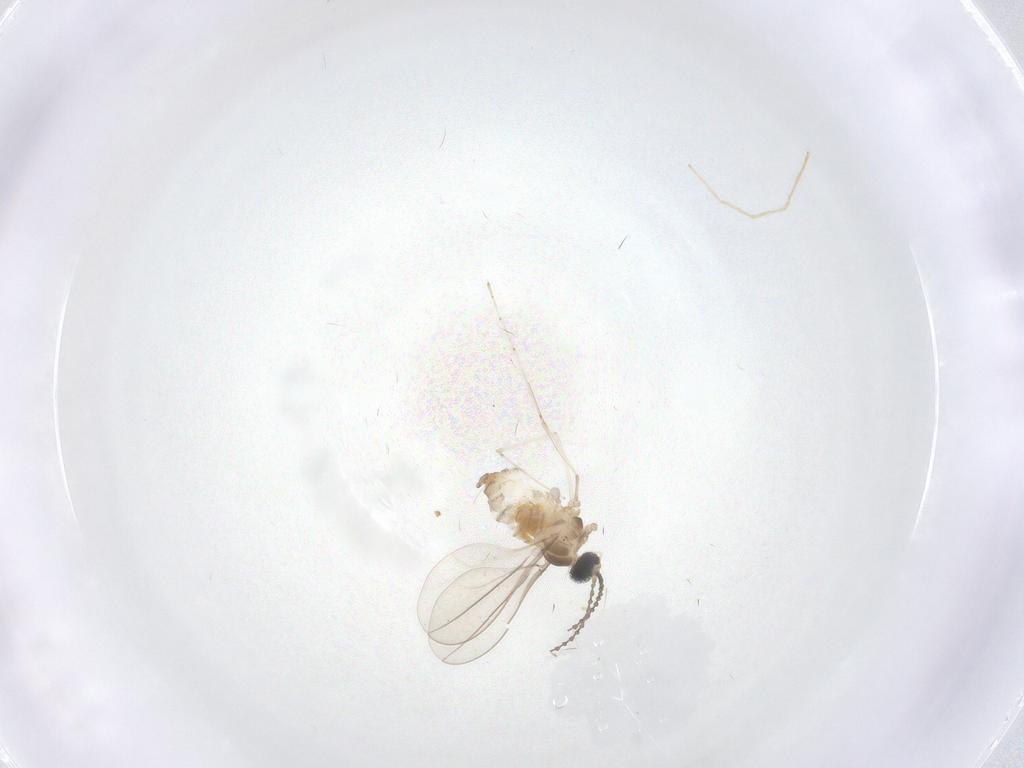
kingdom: Animalia
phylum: Arthropoda
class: Insecta
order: Diptera
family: Cecidomyiidae
